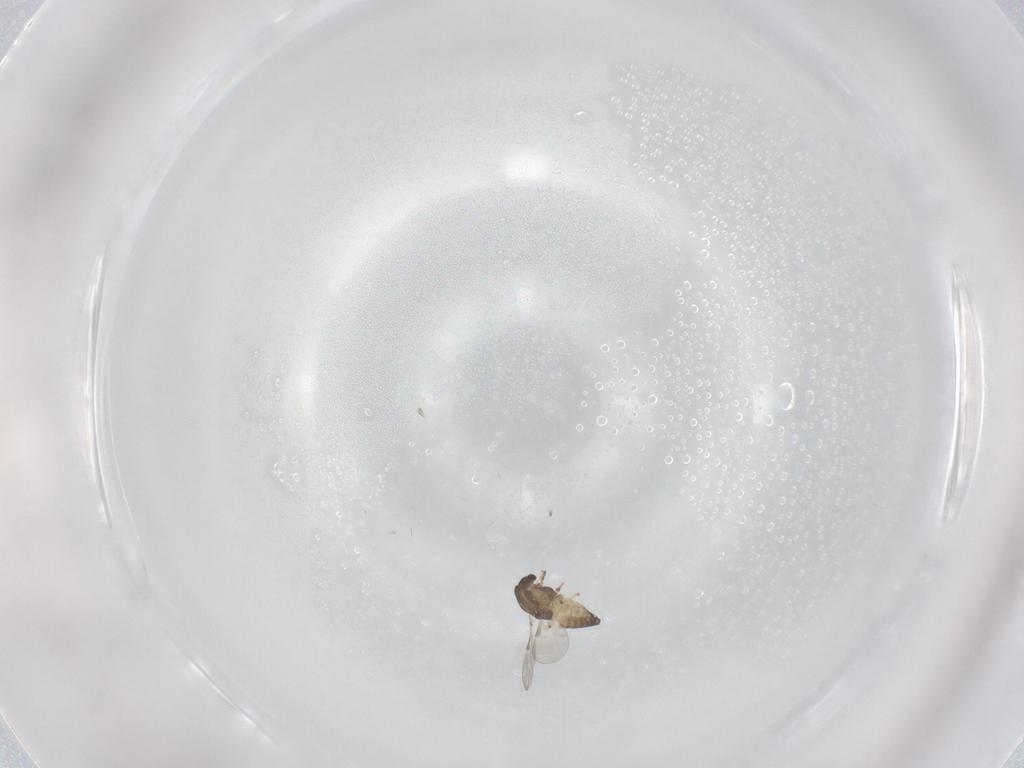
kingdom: Animalia
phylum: Arthropoda
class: Insecta
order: Diptera
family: Chironomidae
